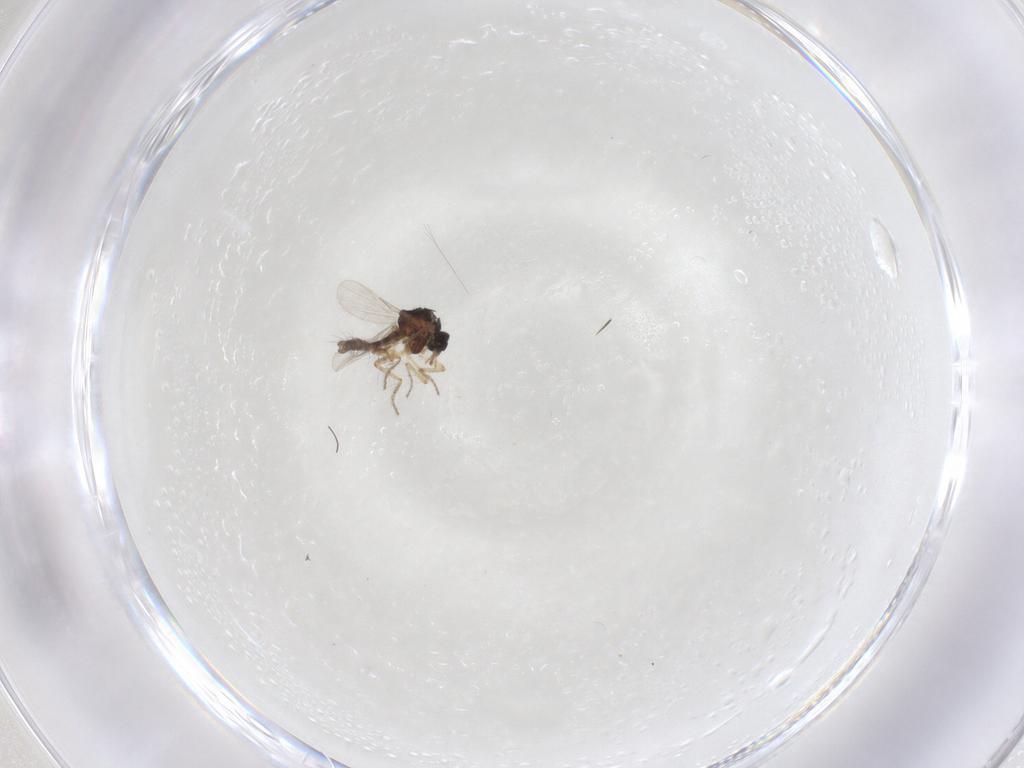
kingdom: Animalia
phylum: Arthropoda
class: Insecta
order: Diptera
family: Ceratopogonidae
